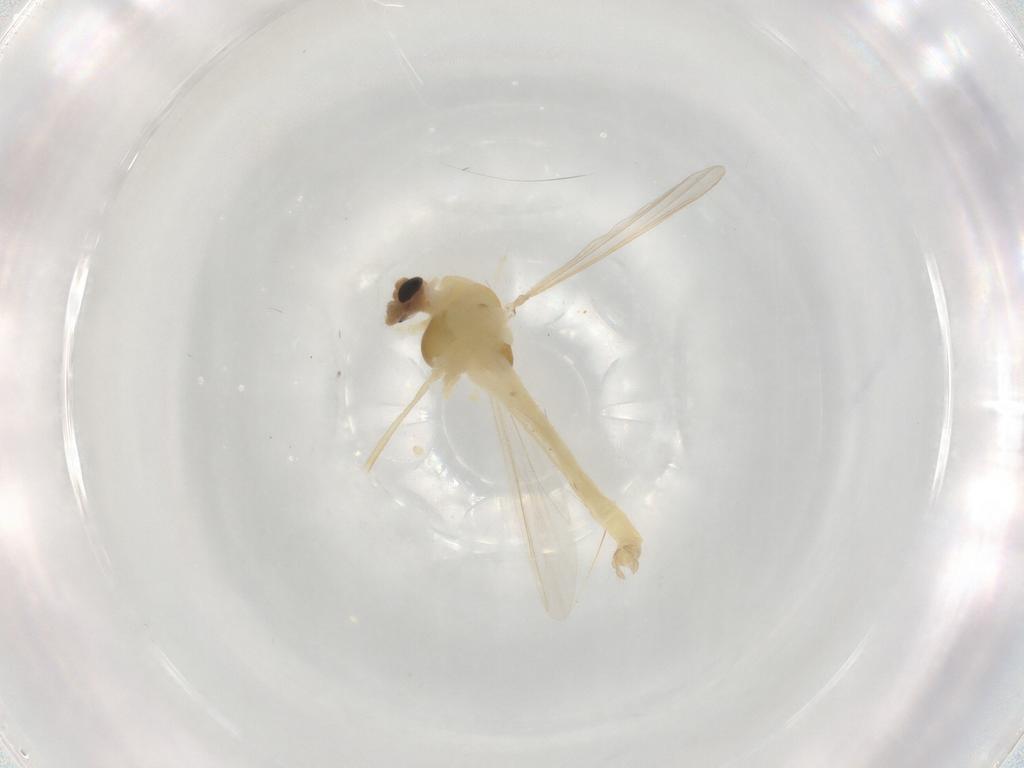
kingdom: Animalia
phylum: Arthropoda
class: Insecta
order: Diptera
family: Chironomidae
